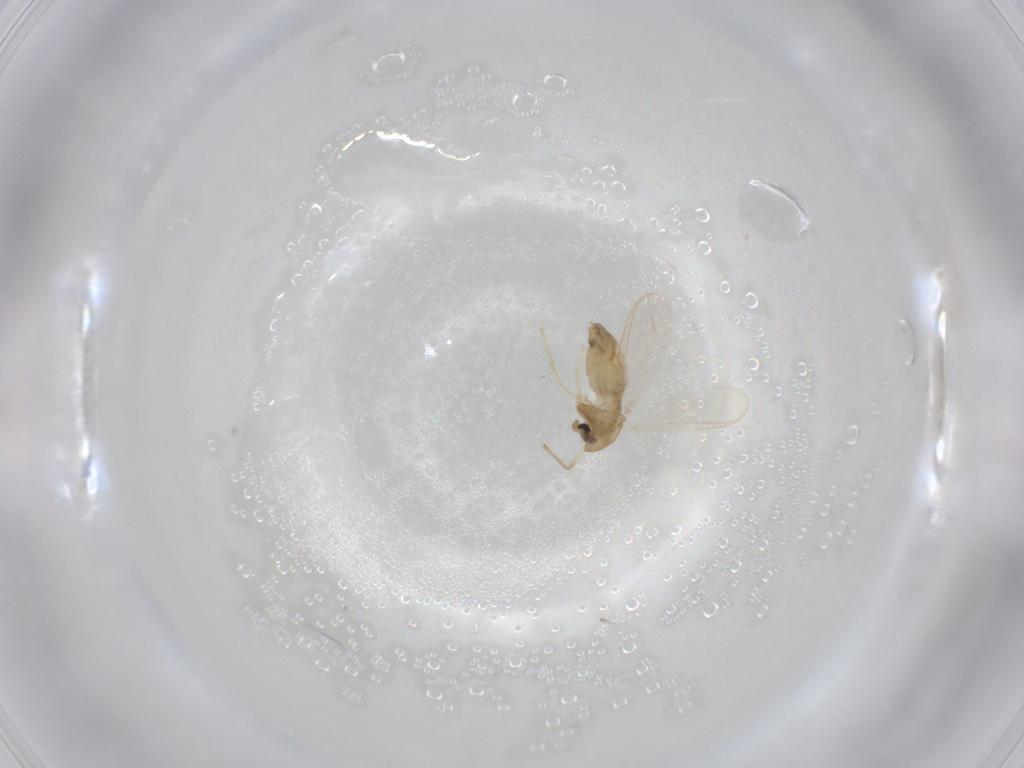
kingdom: Animalia
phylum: Arthropoda
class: Insecta
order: Diptera
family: Chironomidae
